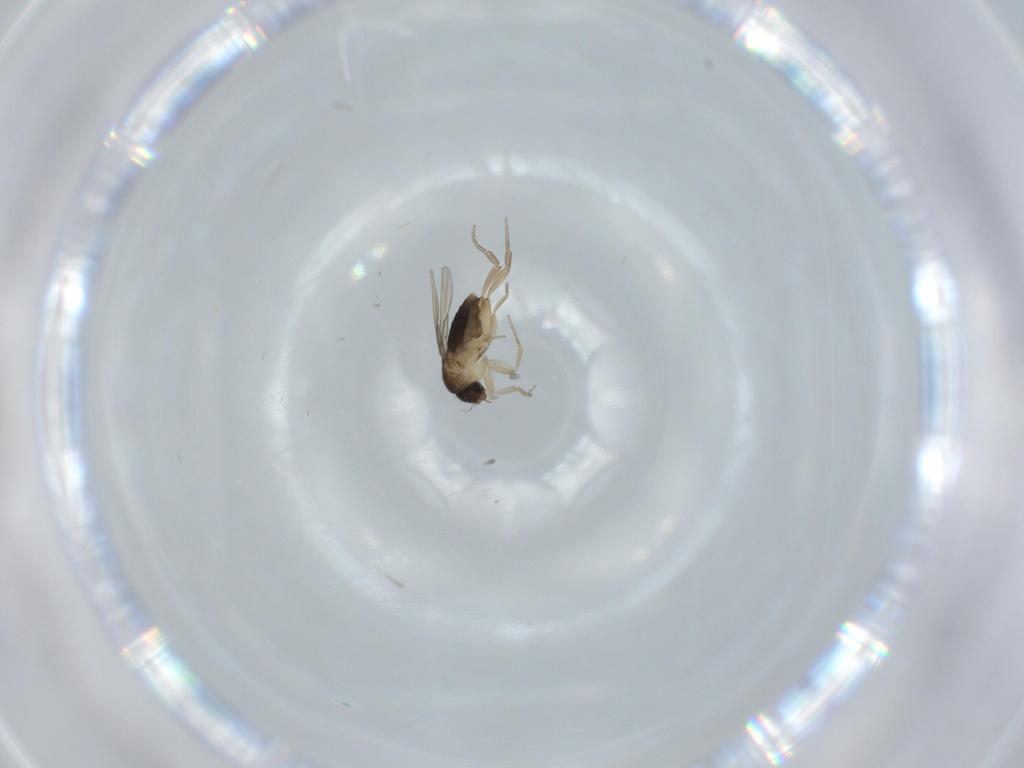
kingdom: Animalia
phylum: Arthropoda
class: Insecta
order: Diptera
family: Phoridae
